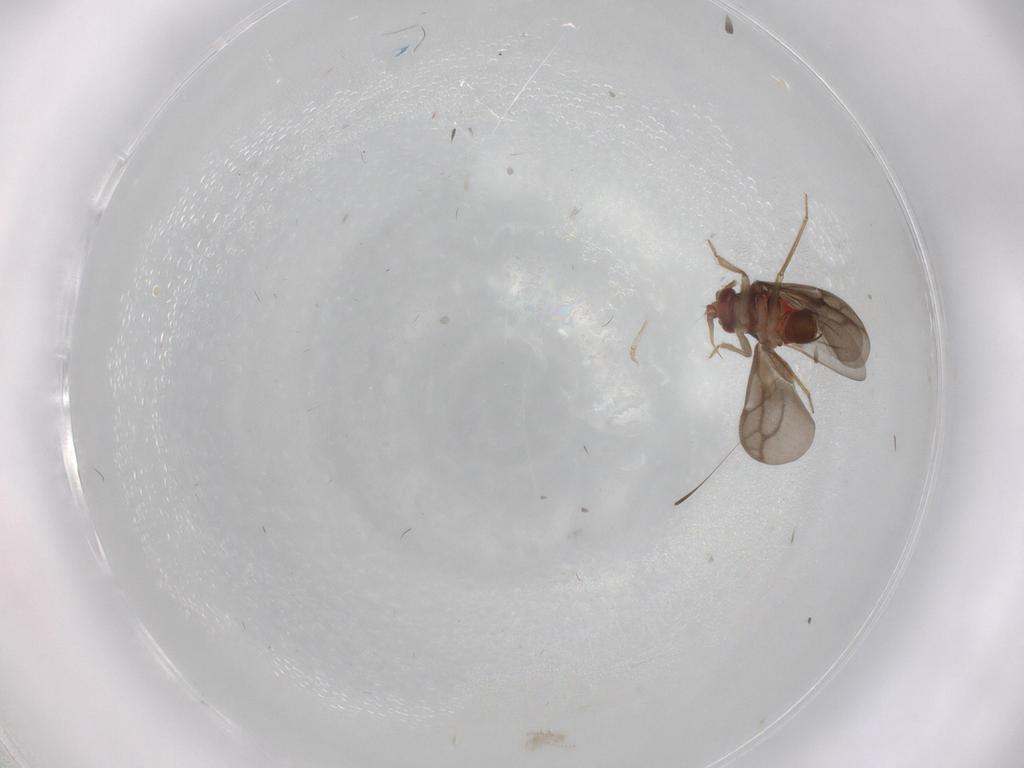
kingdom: Animalia
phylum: Arthropoda
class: Insecta
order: Hemiptera
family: Ceratocombidae
